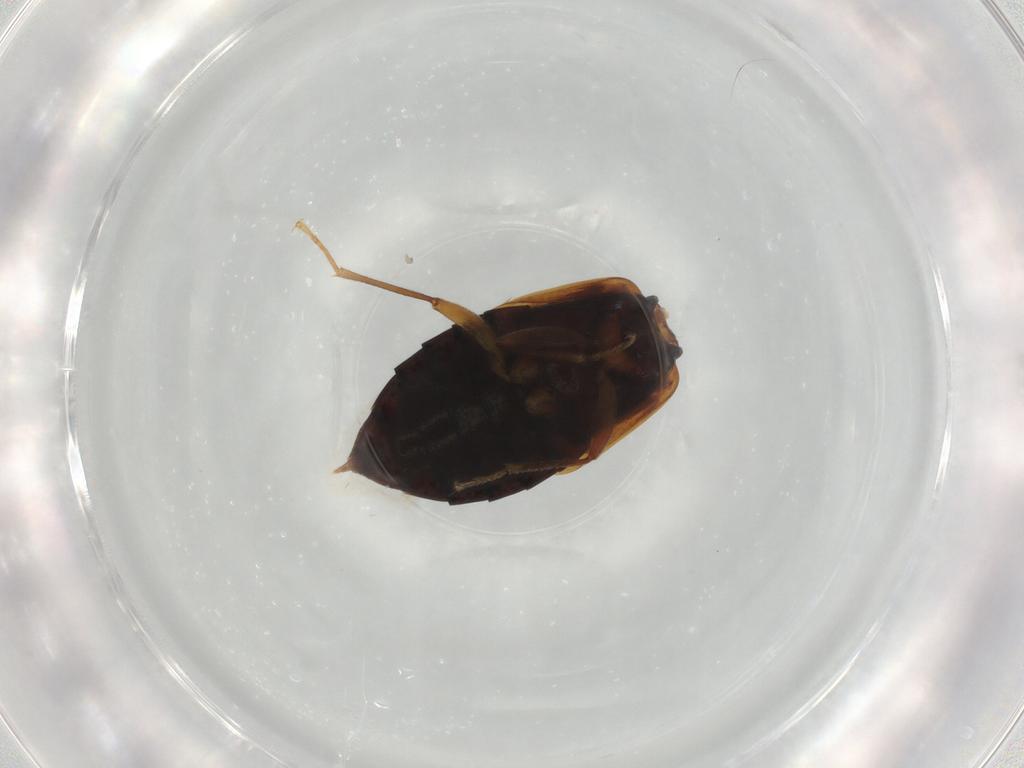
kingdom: Animalia
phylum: Arthropoda
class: Insecta
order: Coleoptera
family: Staphylinidae
